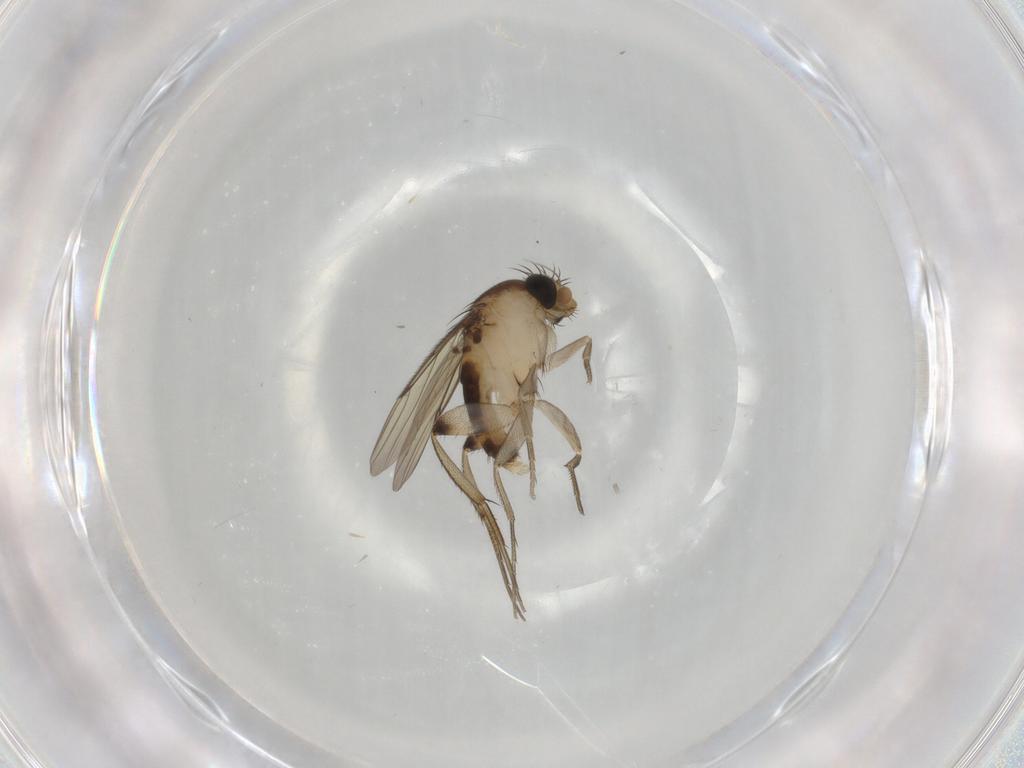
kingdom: Animalia
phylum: Arthropoda
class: Insecta
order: Diptera
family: Phoridae
